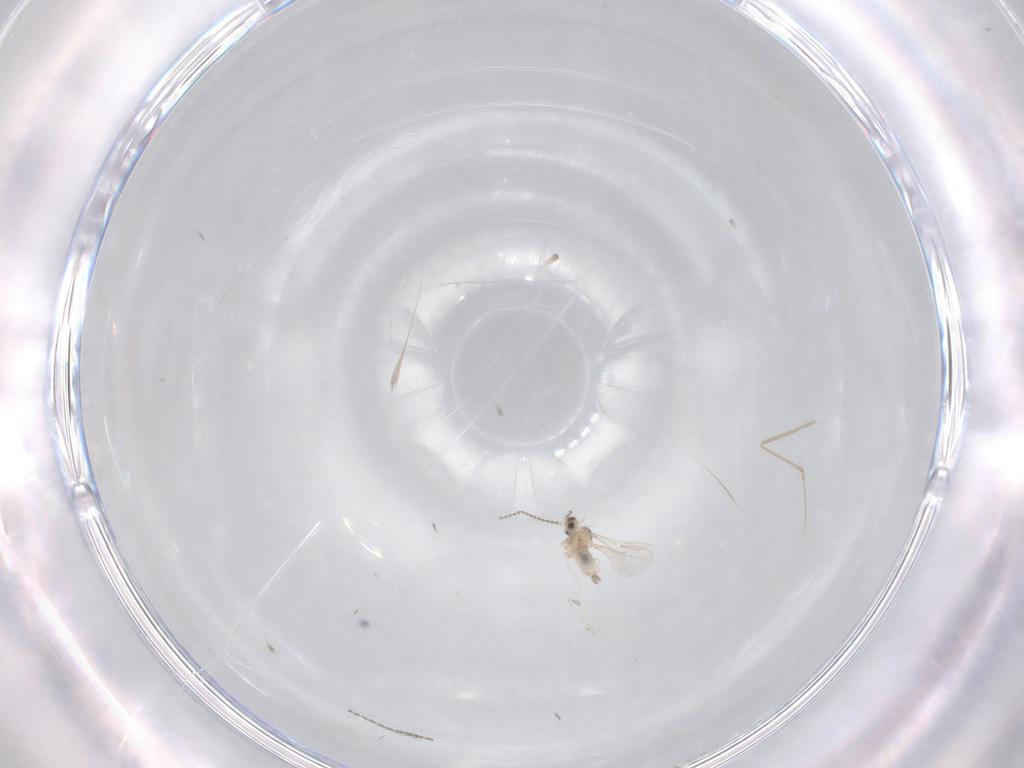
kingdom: Animalia
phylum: Arthropoda
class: Insecta
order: Diptera
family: Cecidomyiidae
